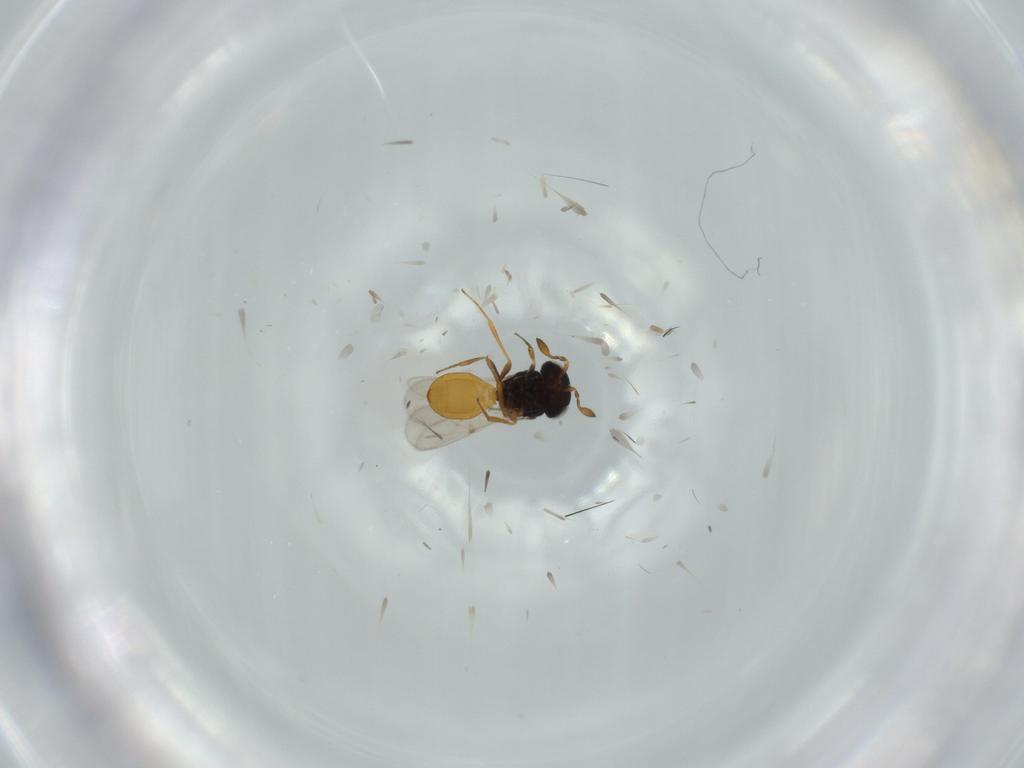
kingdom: Animalia
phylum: Arthropoda
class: Insecta
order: Hymenoptera
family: Scelionidae
